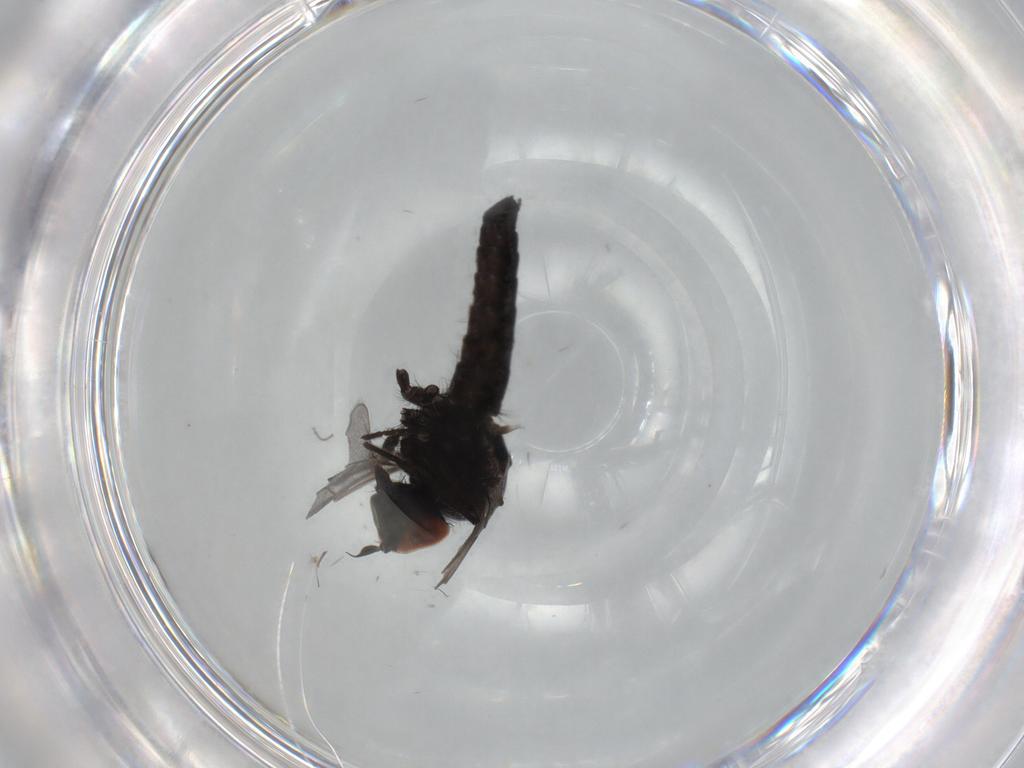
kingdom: Animalia
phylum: Arthropoda
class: Insecta
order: Diptera
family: Hybotidae
